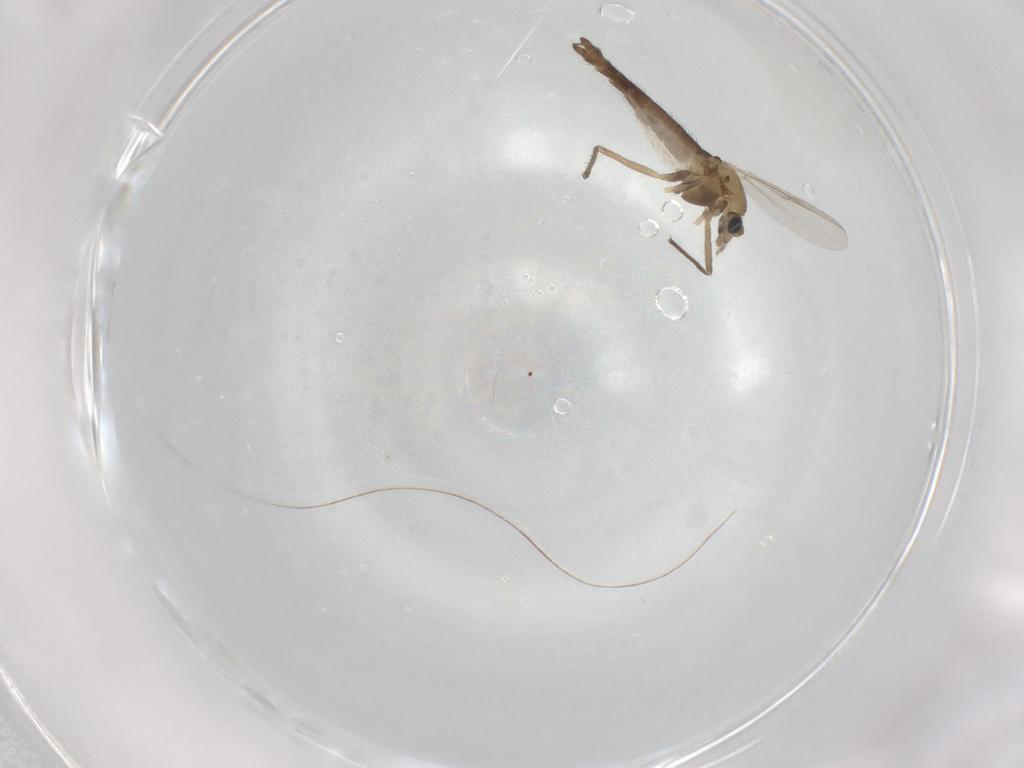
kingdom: Animalia
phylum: Arthropoda
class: Insecta
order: Diptera
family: Chironomidae
